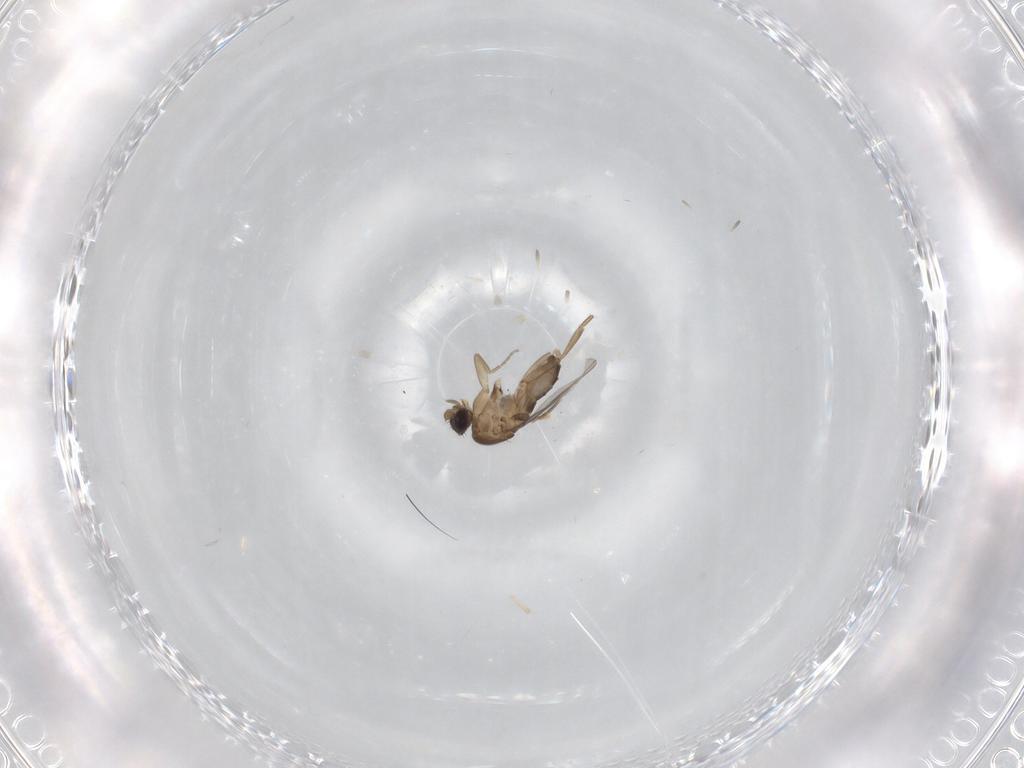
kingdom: Animalia
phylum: Arthropoda
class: Insecta
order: Diptera
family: Phoridae
